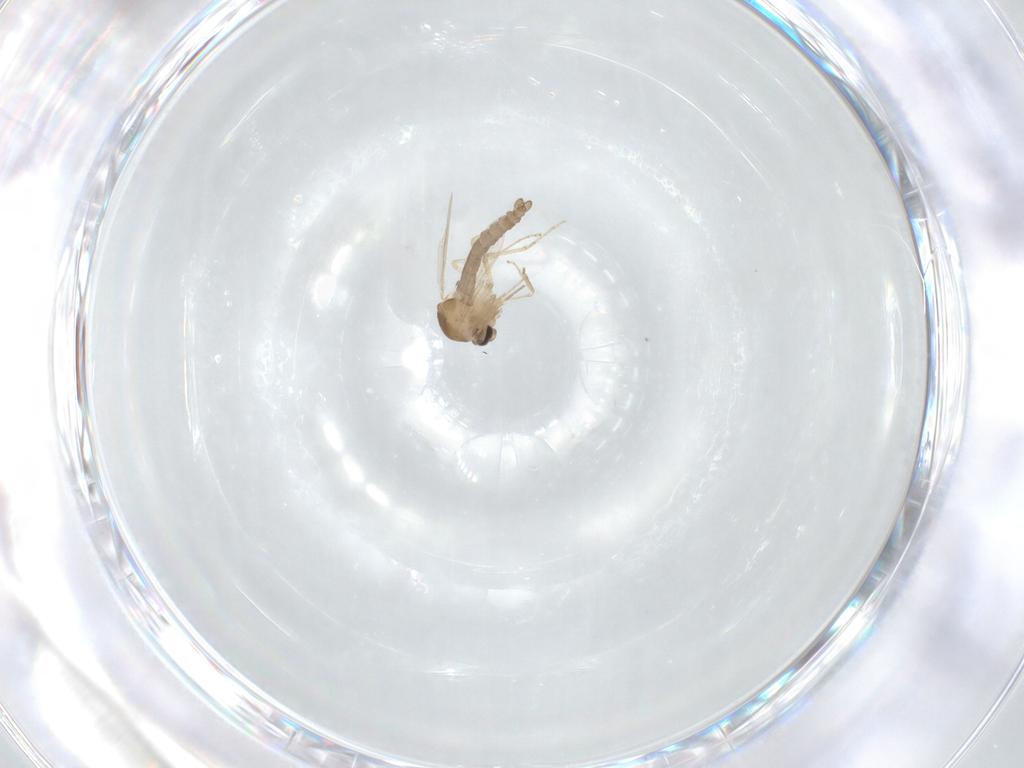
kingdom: Animalia
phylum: Arthropoda
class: Insecta
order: Diptera
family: Ceratopogonidae
